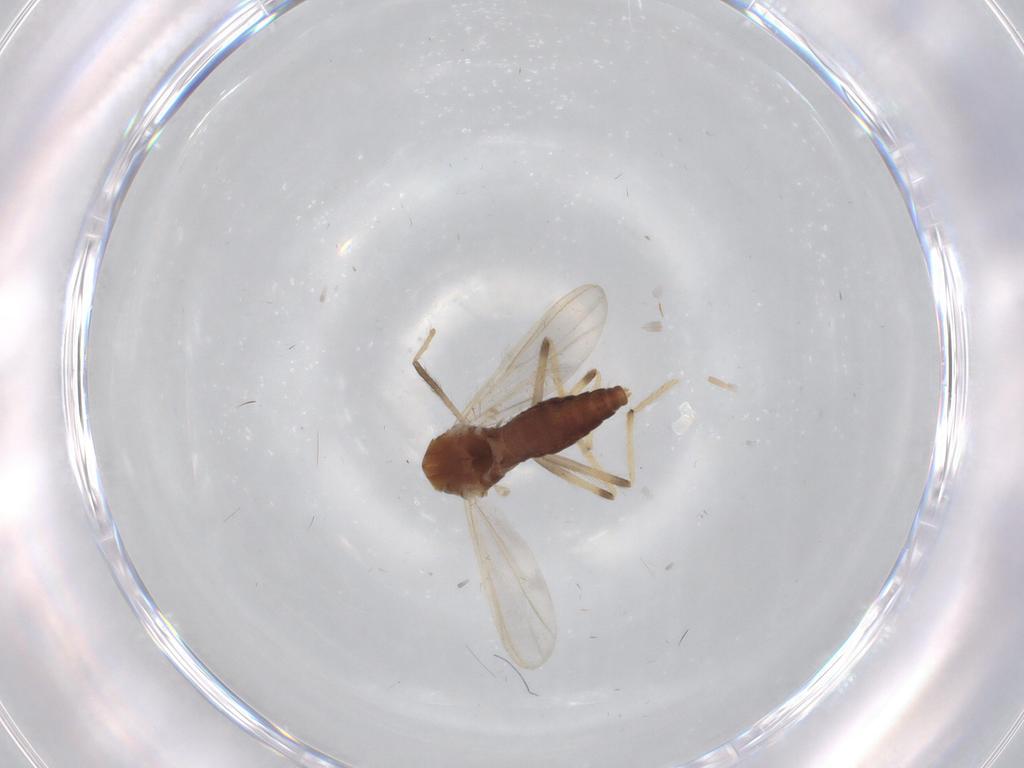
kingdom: Animalia
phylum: Arthropoda
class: Insecta
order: Diptera
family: Chironomidae
